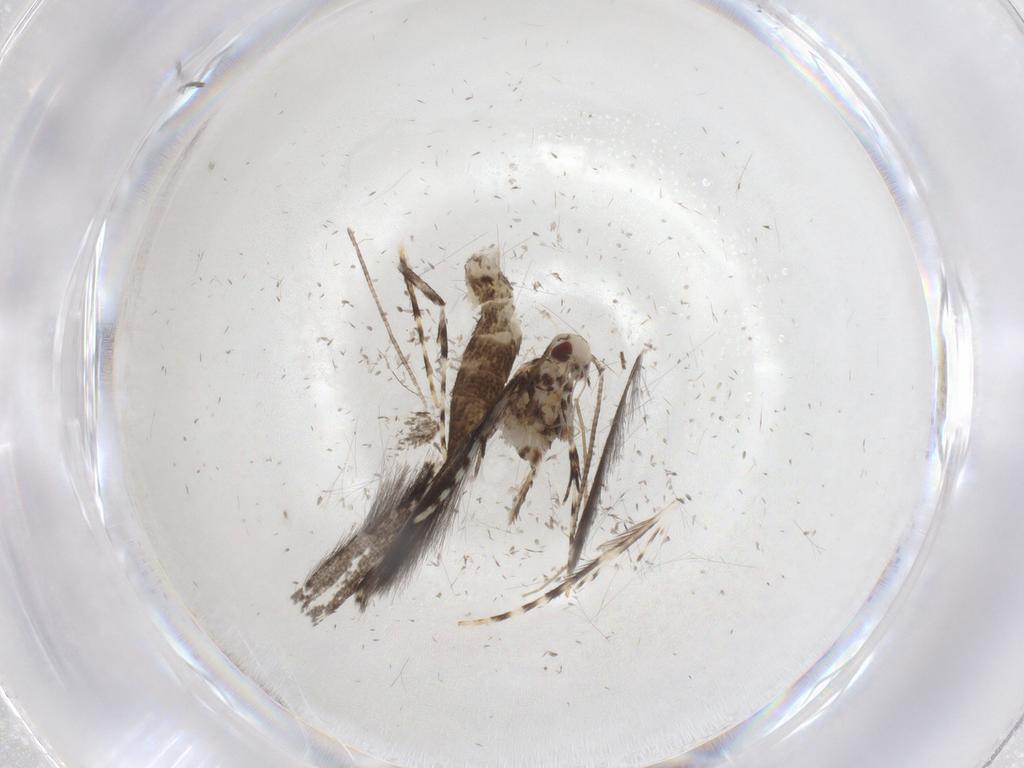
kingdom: Animalia
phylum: Arthropoda
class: Insecta
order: Lepidoptera
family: Gracillariidae
